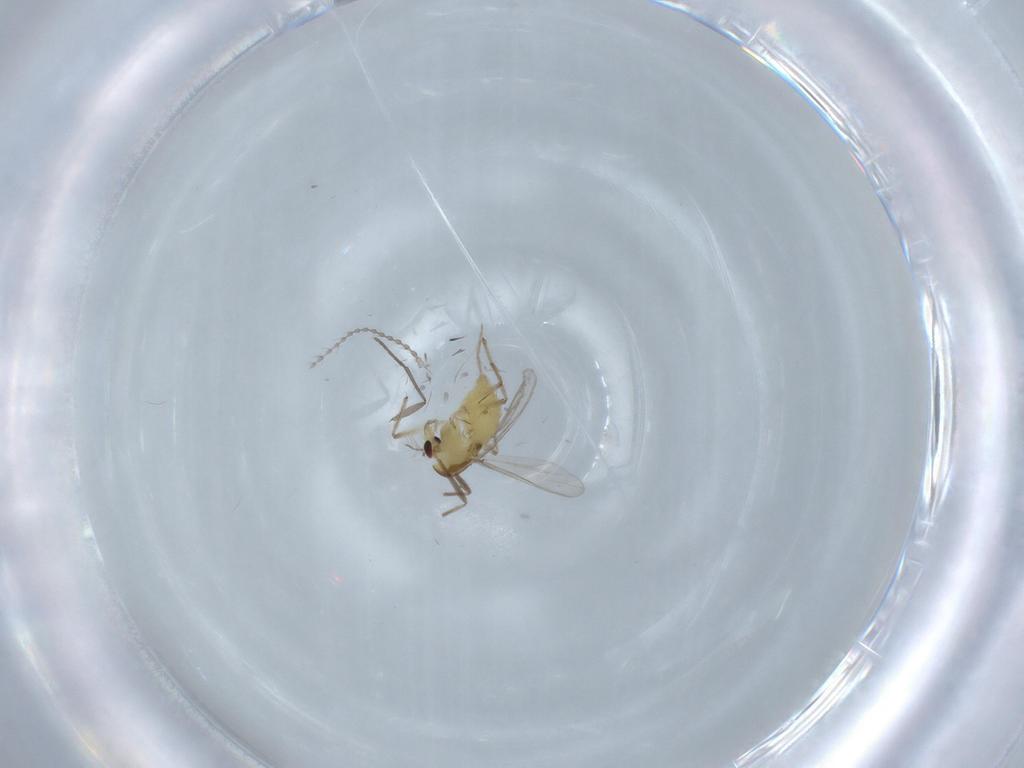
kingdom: Animalia
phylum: Arthropoda
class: Insecta
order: Diptera
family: Chironomidae
